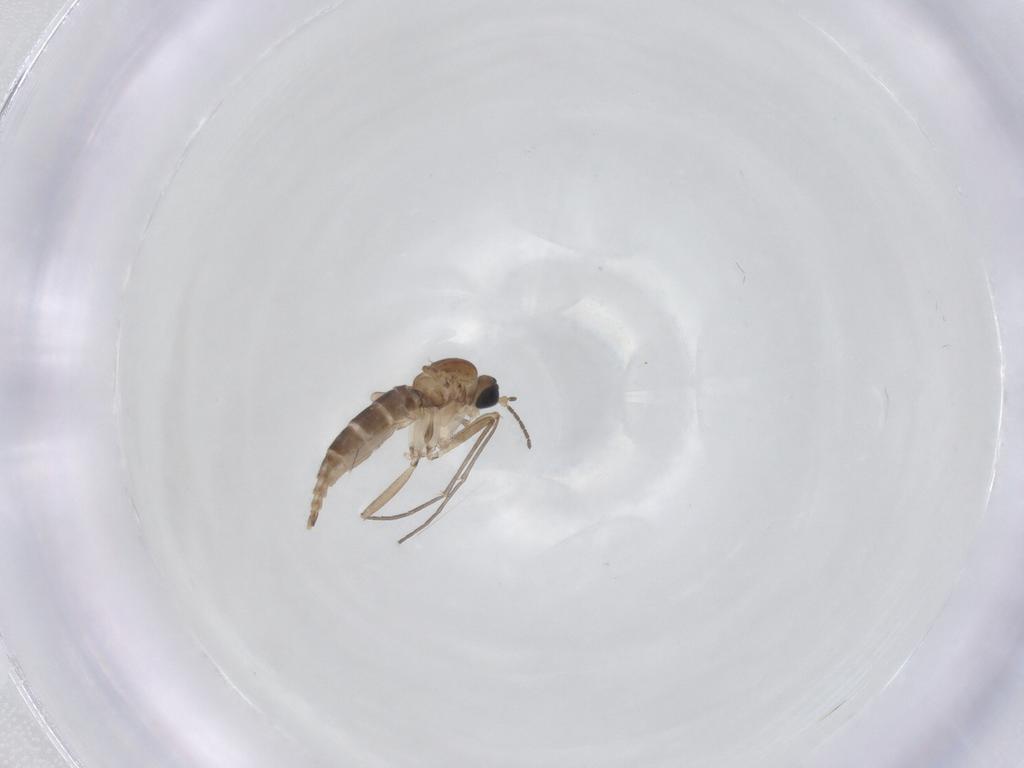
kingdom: Animalia
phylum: Arthropoda
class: Insecta
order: Diptera
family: Sciaridae
